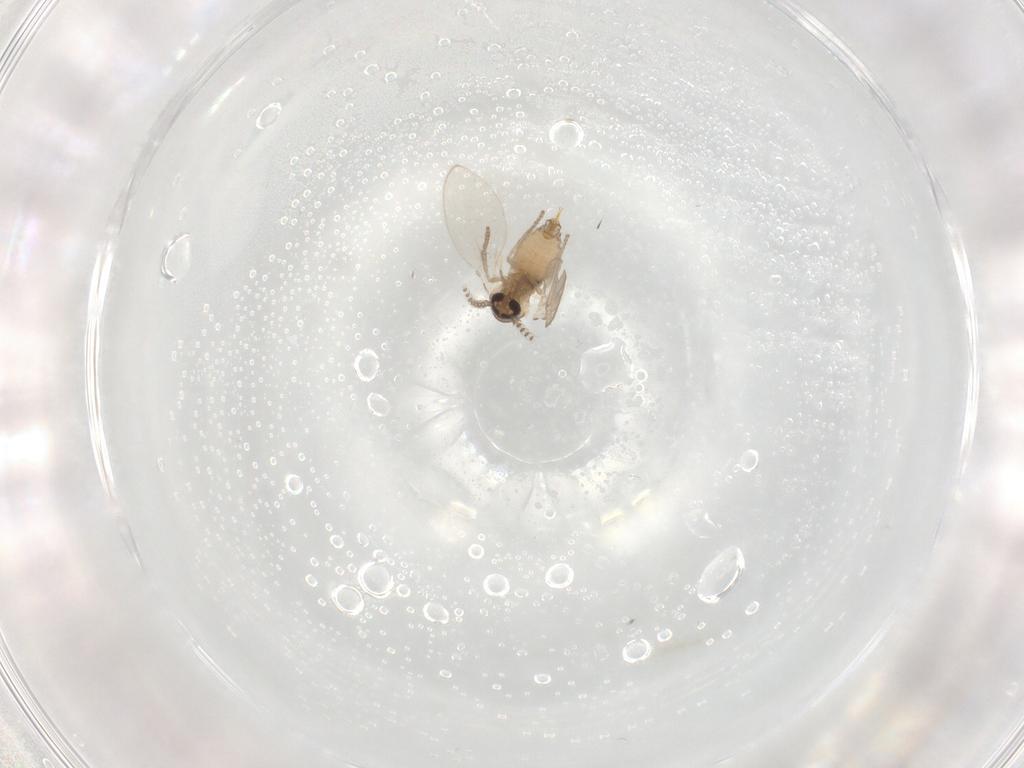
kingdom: Animalia
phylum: Arthropoda
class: Insecta
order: Diptera
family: Psychodidae
